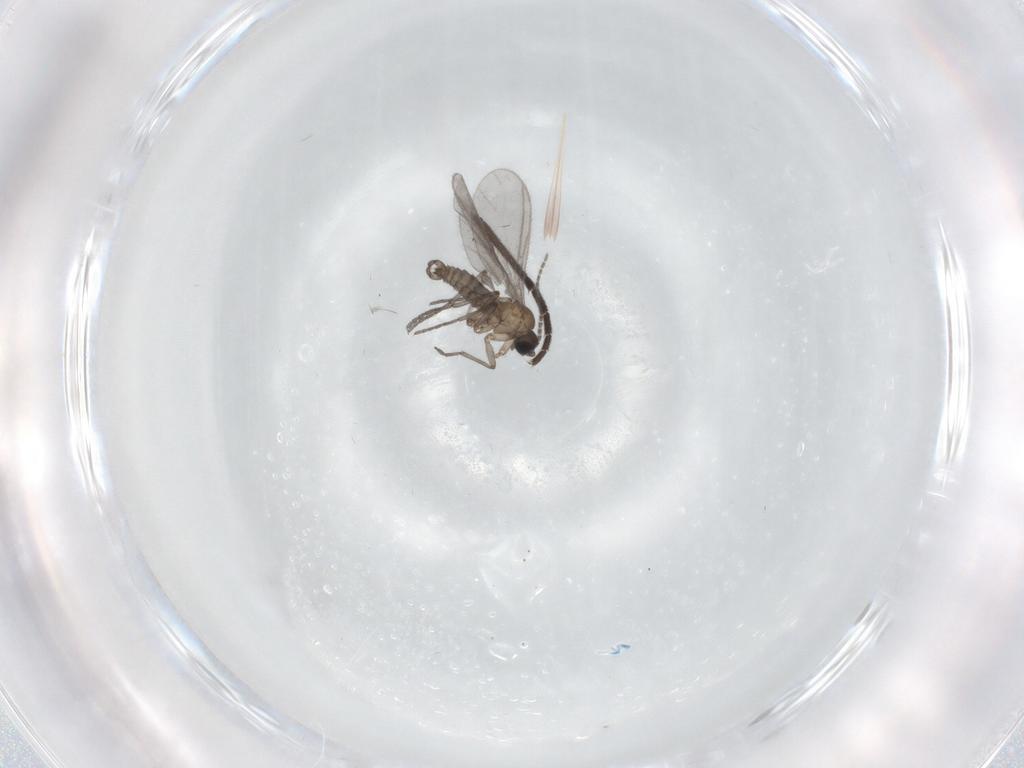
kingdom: Animalia
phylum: Arthropoda
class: Insecta
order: Diptera
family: Sciaridae
